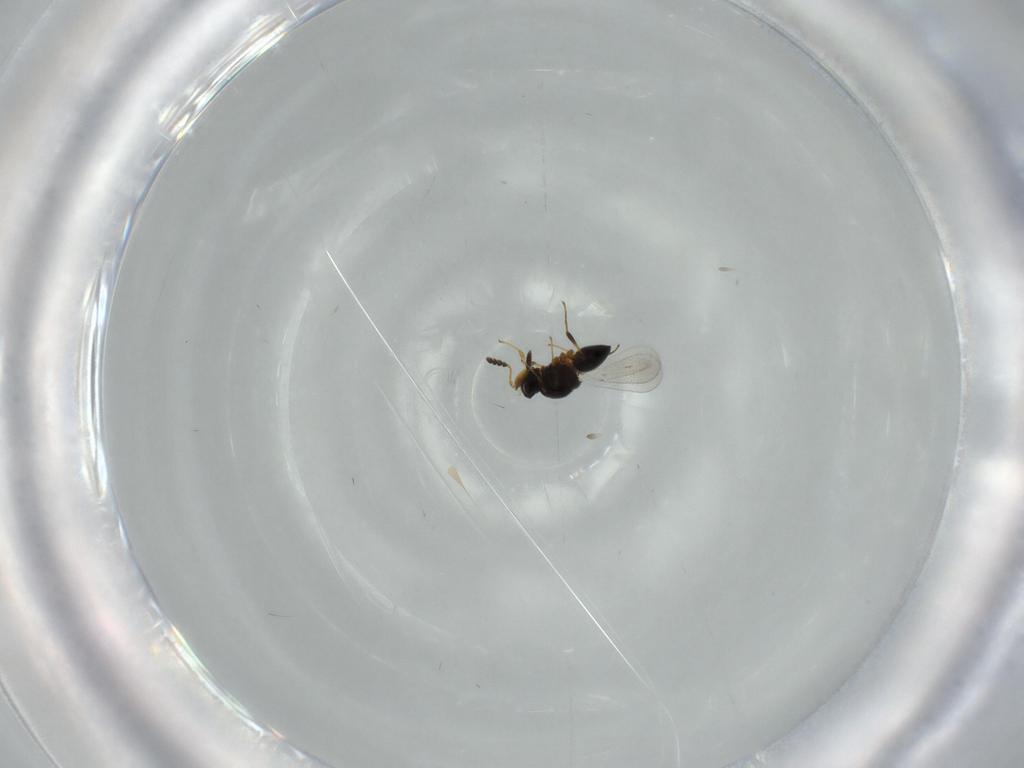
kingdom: Animalia
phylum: Arthropoda
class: Insecta
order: Hymenoptera
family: Platygastridae
